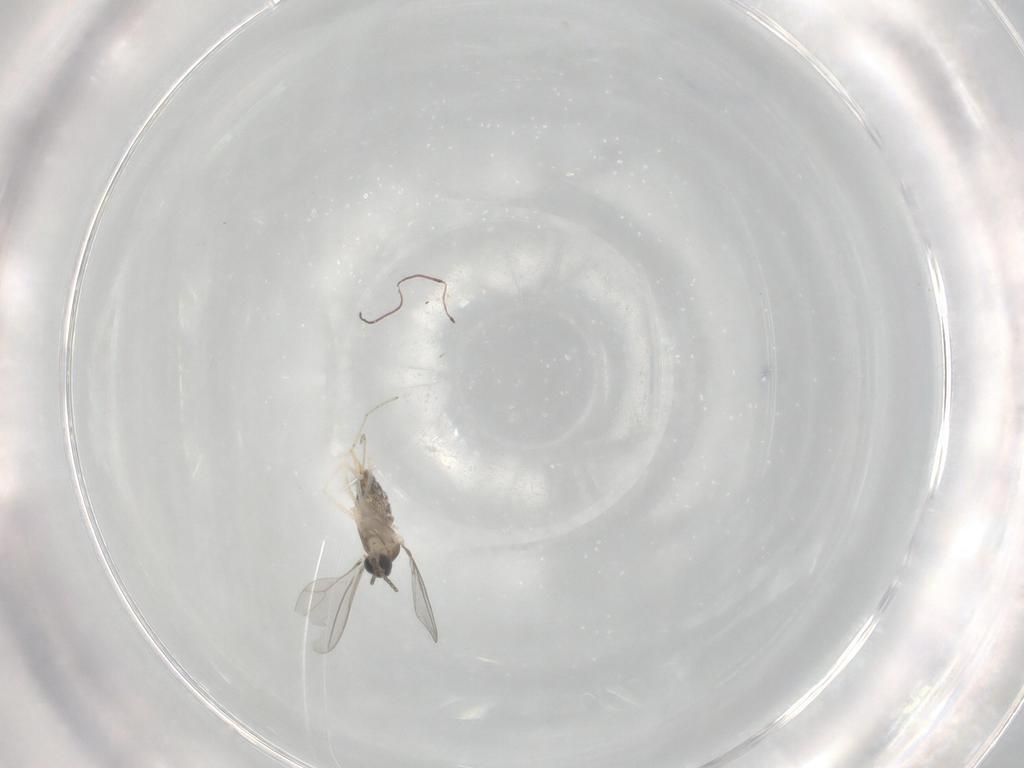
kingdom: Animalia
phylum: Arthropoda
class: Insecta
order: Diptera
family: Cecidomyiidae
